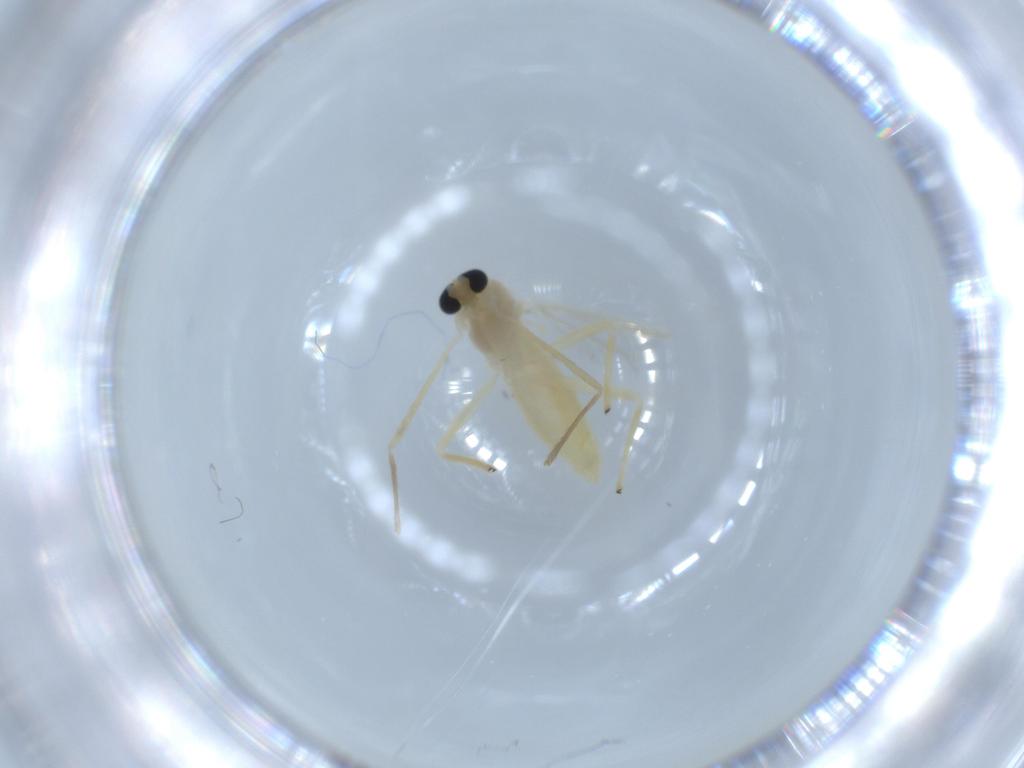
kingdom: Animalia
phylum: Arthropoda
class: Insecta
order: Diptera
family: Chironomidae
